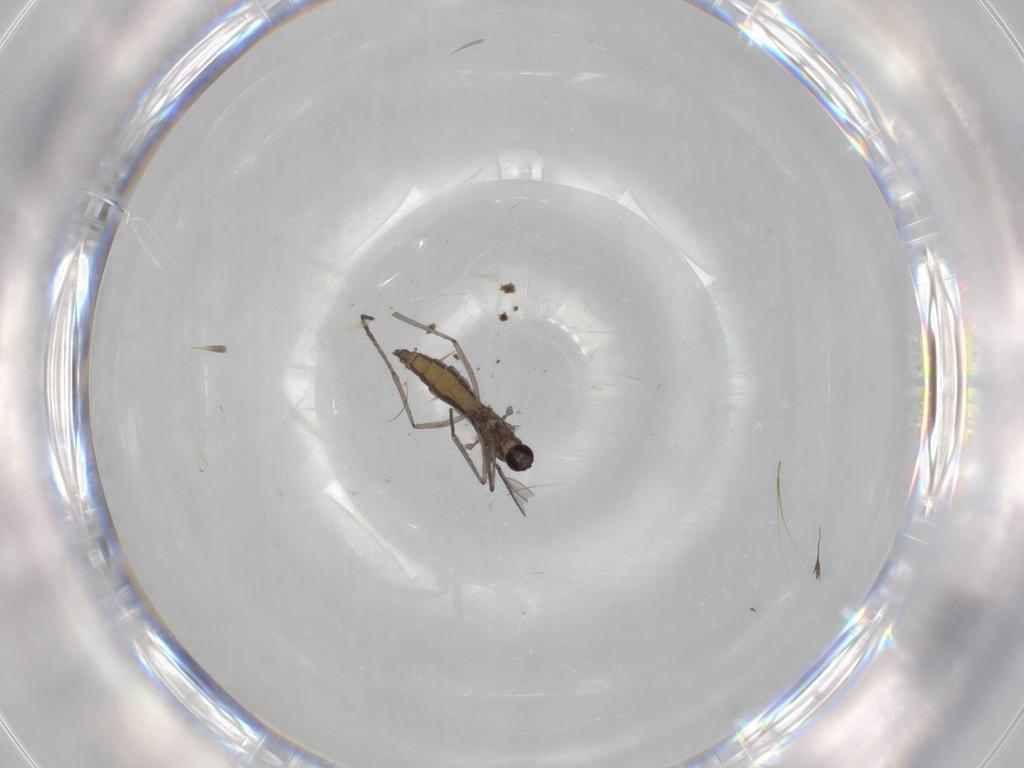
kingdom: Animalia
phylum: Arthropoda
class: Insecta
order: Diptera
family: Cecidomyiidae
